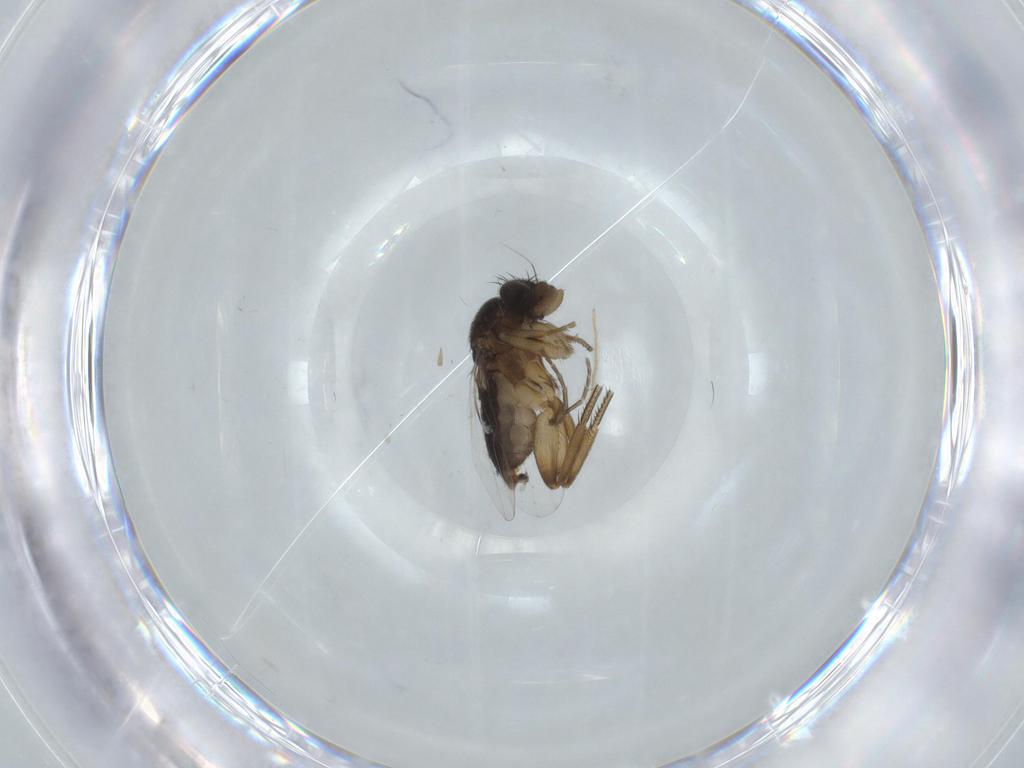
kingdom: Animalia
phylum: Arthropoda
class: Insecta
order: Diptera
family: Phoridae
